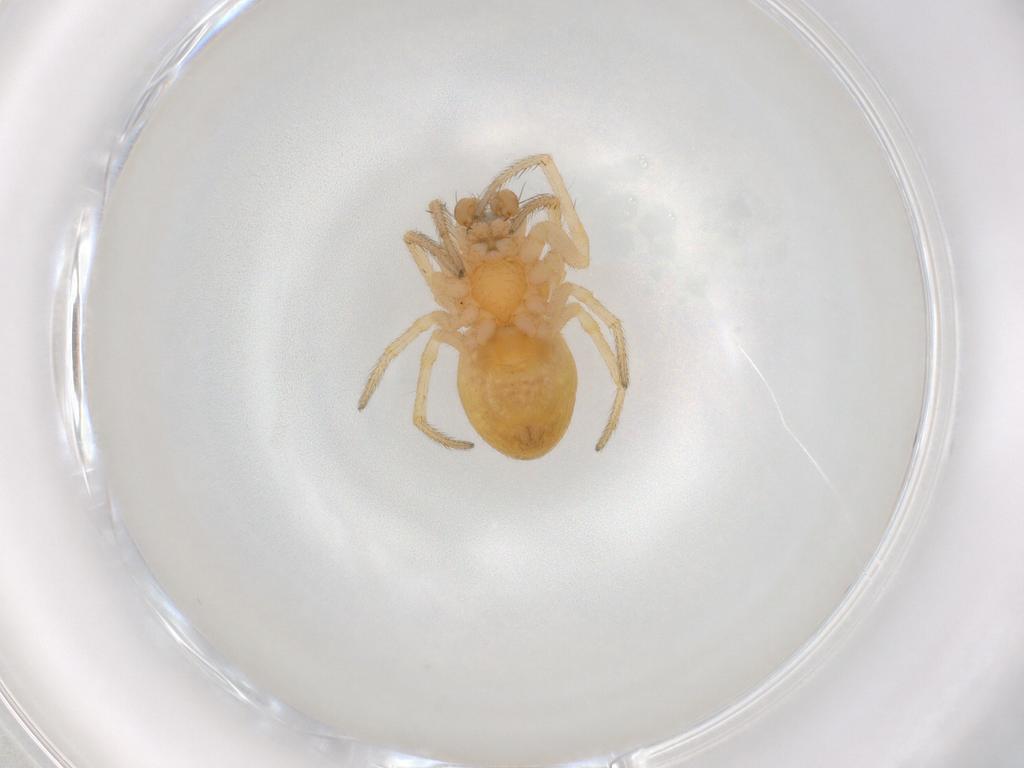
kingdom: Animalia
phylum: Arthropoda
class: Arachnida
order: Araneae
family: Araneidae
